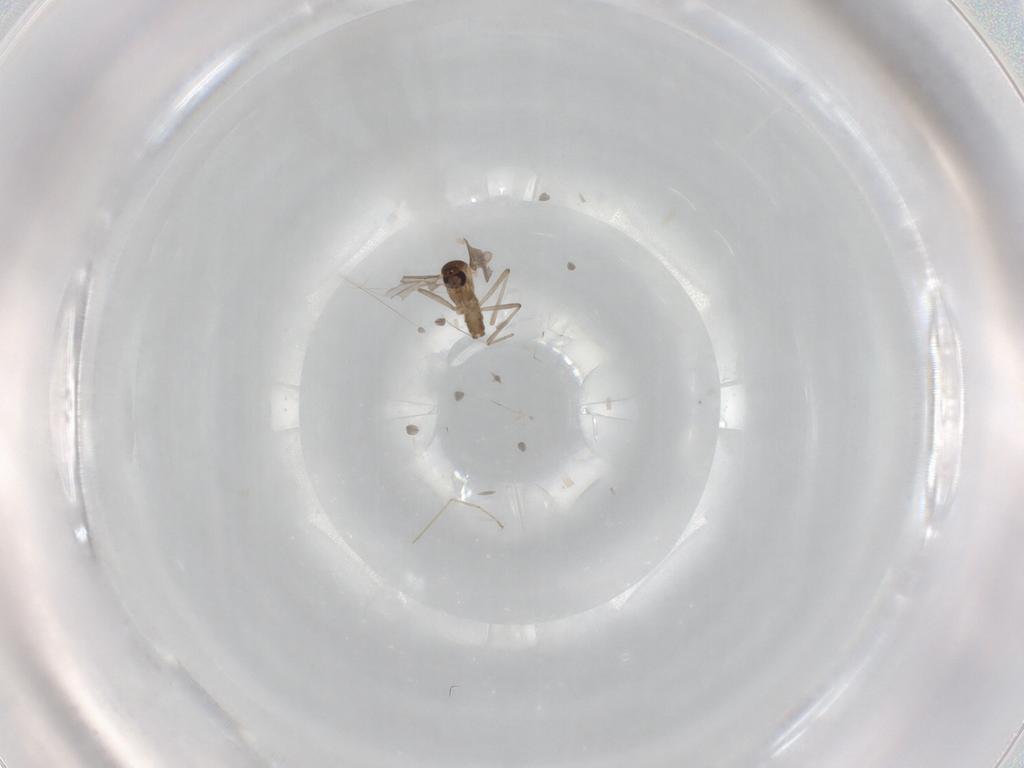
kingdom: Animalia
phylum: Arthropoda
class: Insecta
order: Diptera
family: Cecidomyiidae
